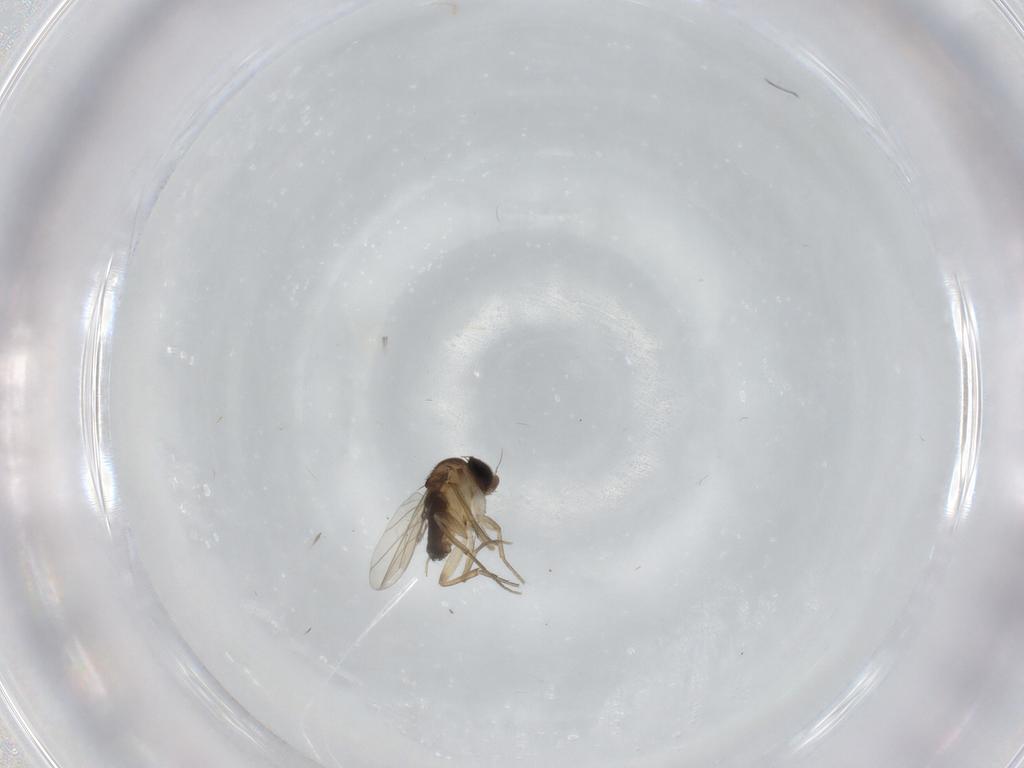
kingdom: Animalia
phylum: Arthropoda
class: Insecta
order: Diptera
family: Phoridae
